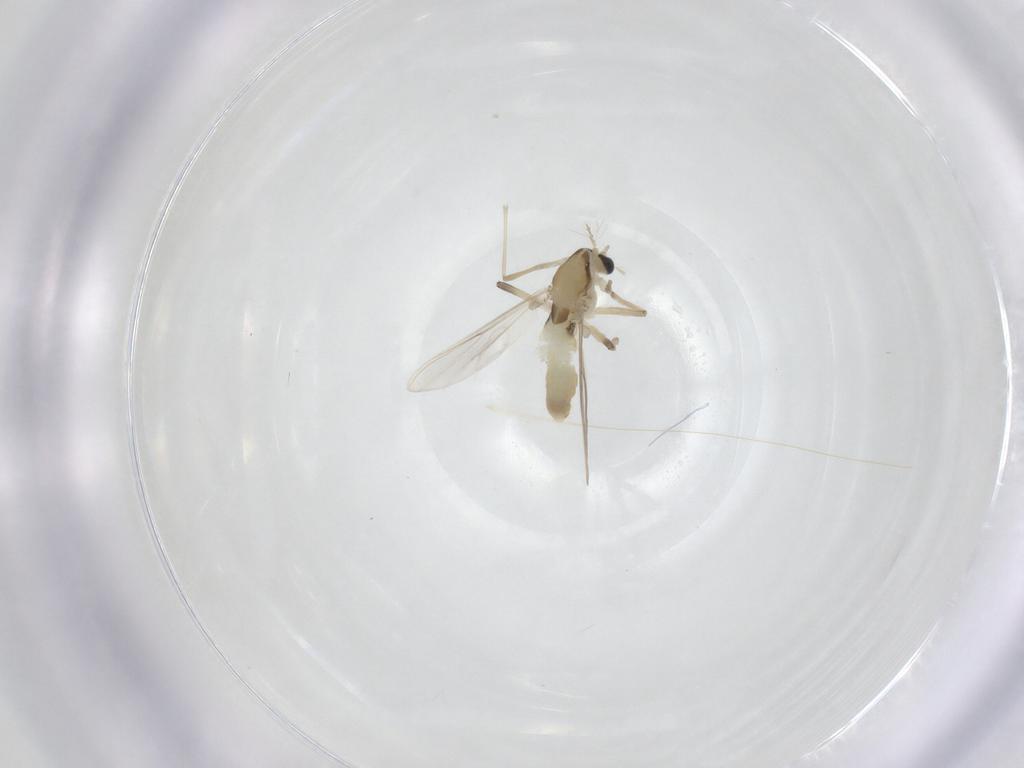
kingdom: Animalia
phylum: Arthropoda
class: Insecta
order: Diptera
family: Chironomidae
